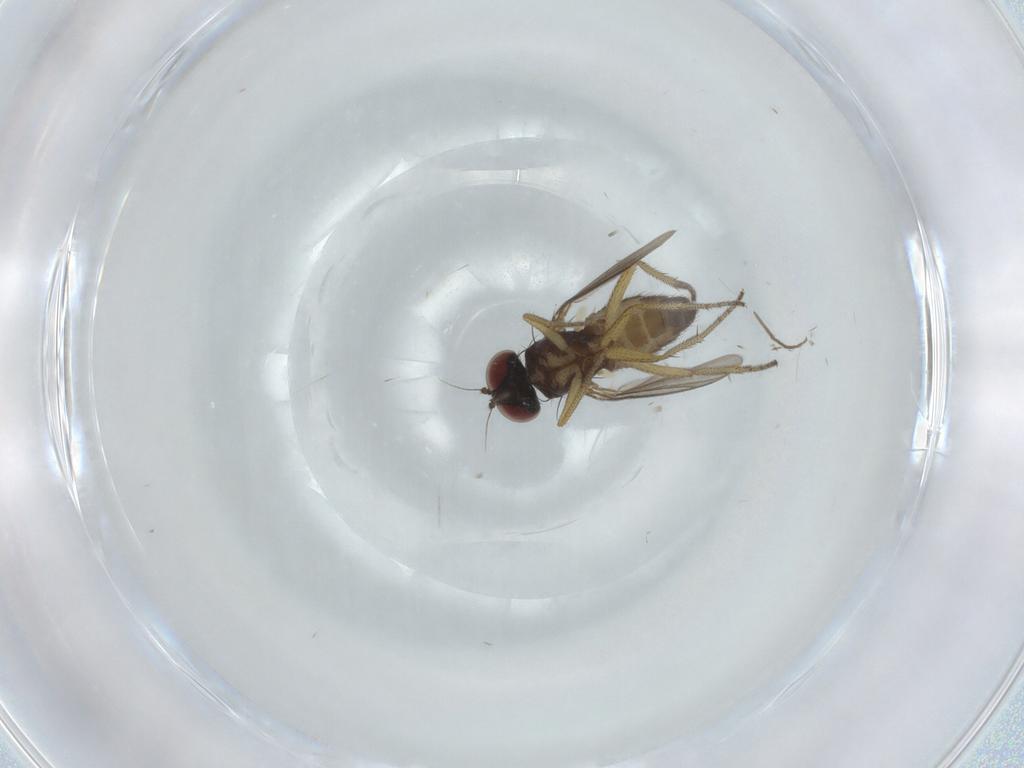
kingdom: Animalia
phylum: Arthropoda
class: Insecta
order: Diptera
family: Dolichopodidae
